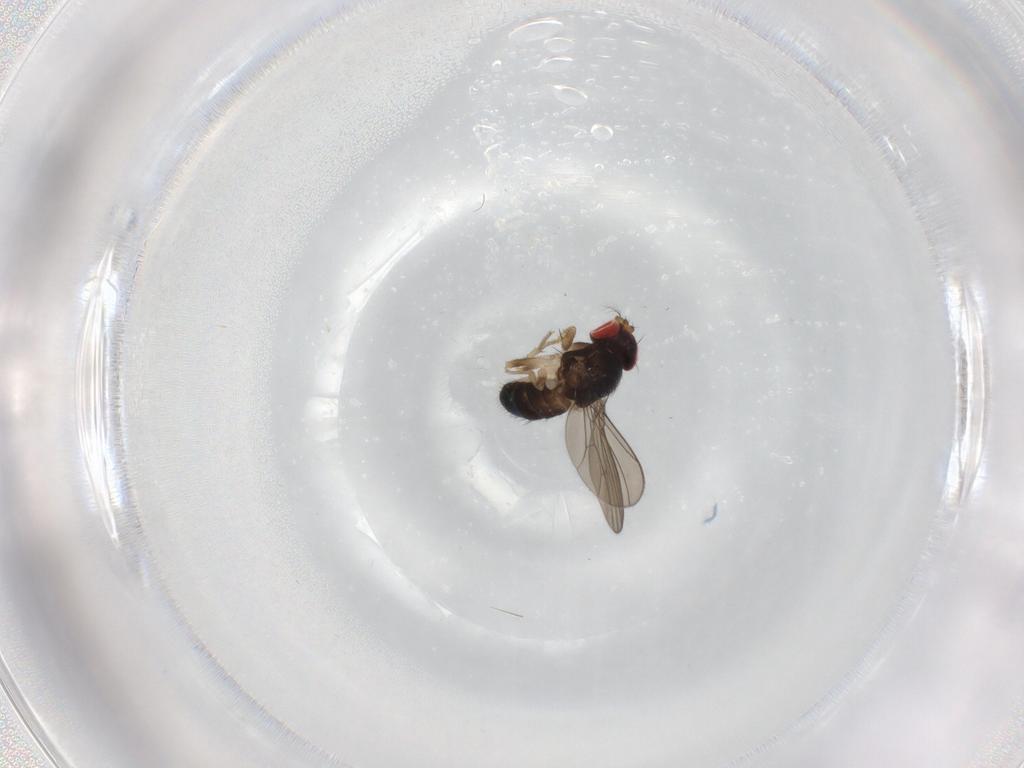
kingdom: Animalia
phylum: Arthropoda
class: Insecta
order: Diptera
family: Drosophilidae
